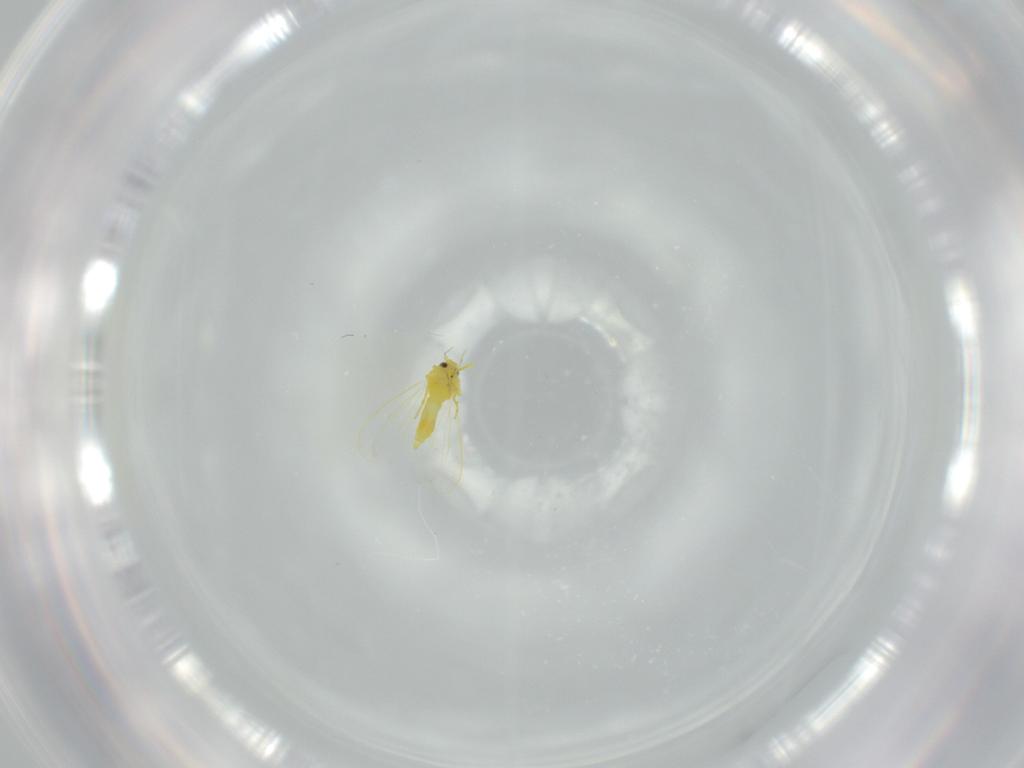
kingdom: Animalia
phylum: Arthropoda
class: Insecta
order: Hemiptera
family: Aleyrodidae
